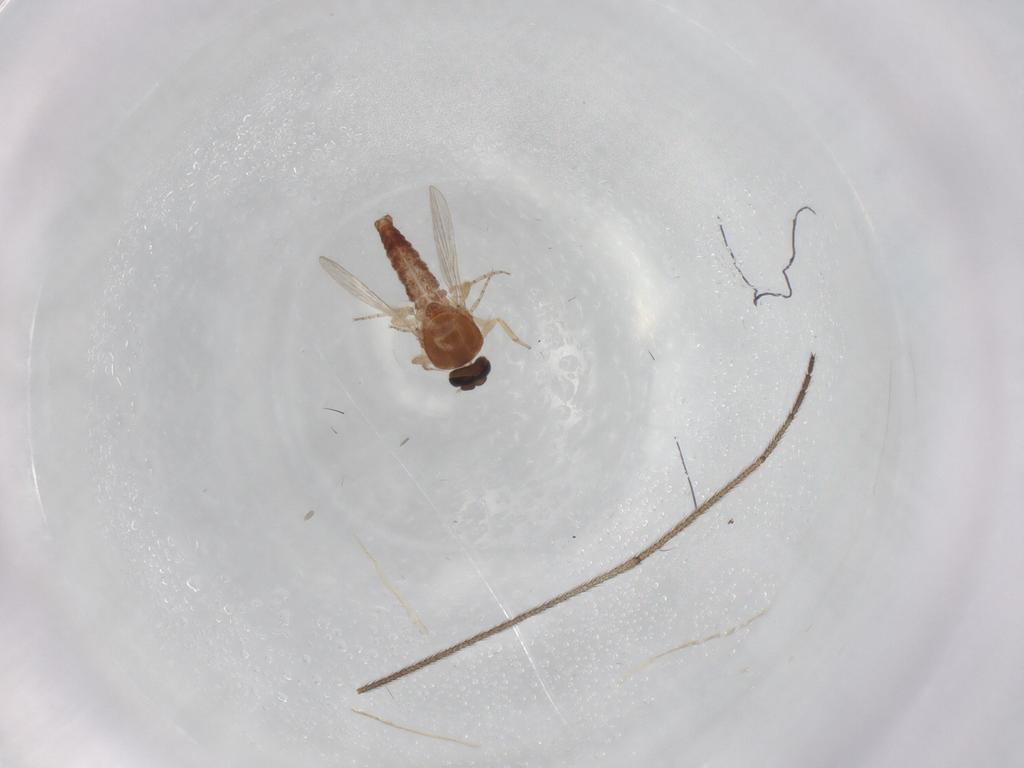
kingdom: Animalia
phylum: Arthropoda
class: Insecta
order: Diptera
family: Ceratopogonidae
